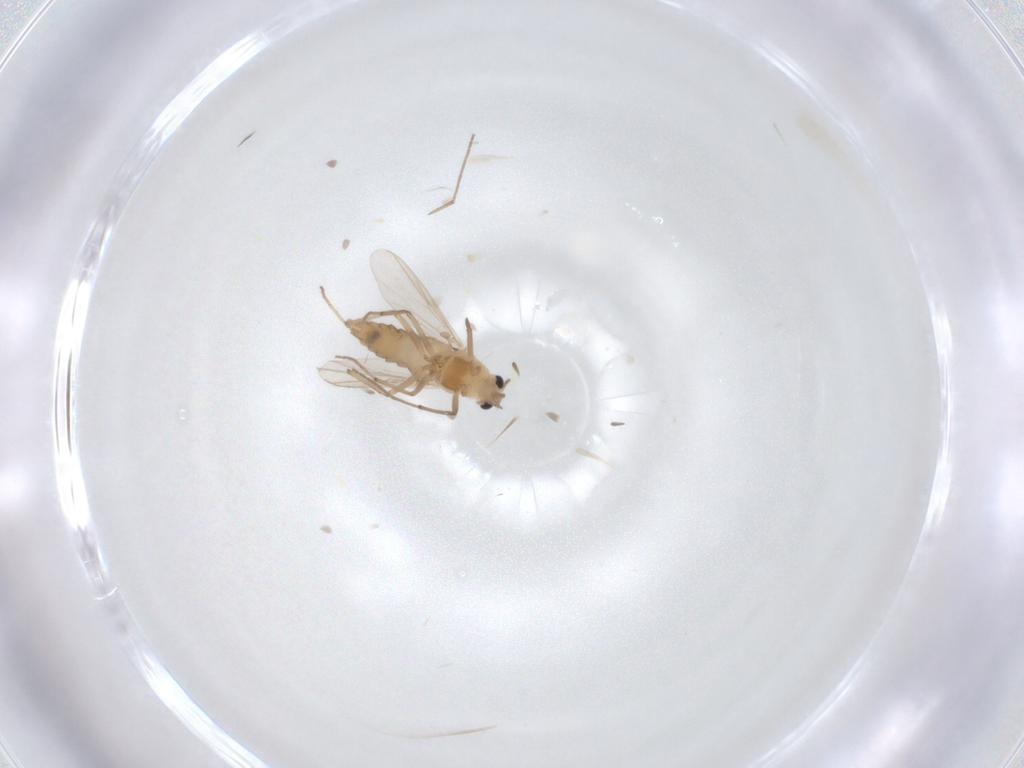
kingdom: Animalia
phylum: Arthropoda
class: Insecta
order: Diptera
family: Chironomidae
